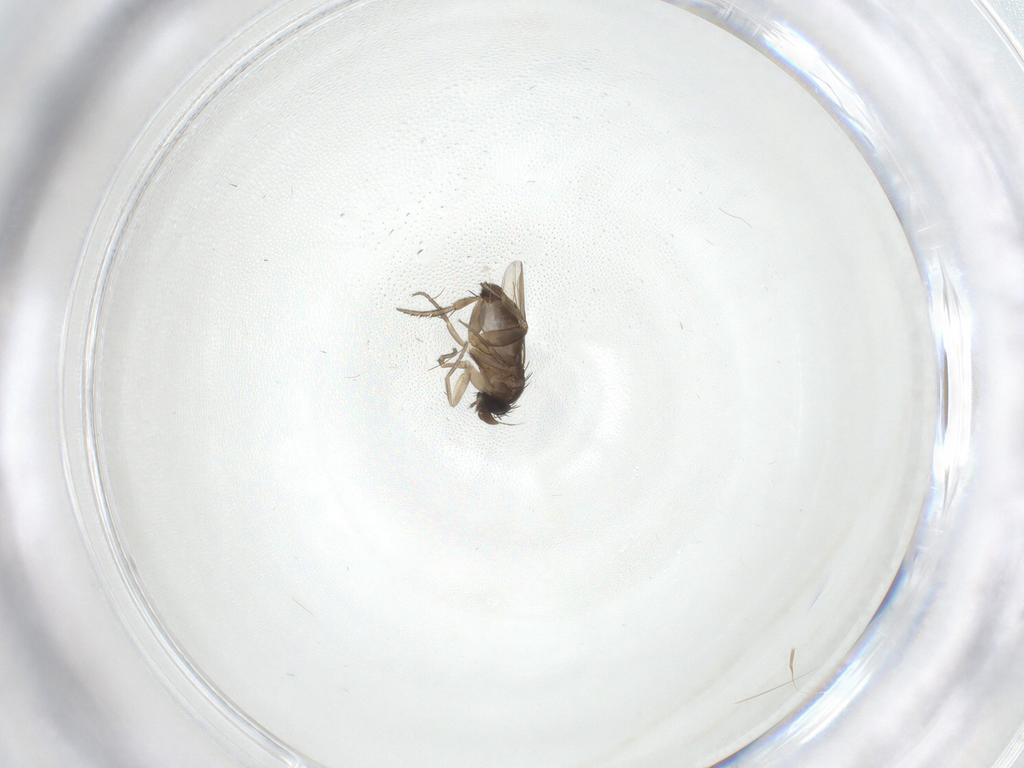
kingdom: Animalia
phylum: Arthropoda
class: Insecta
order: Diptera
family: Phoridae
